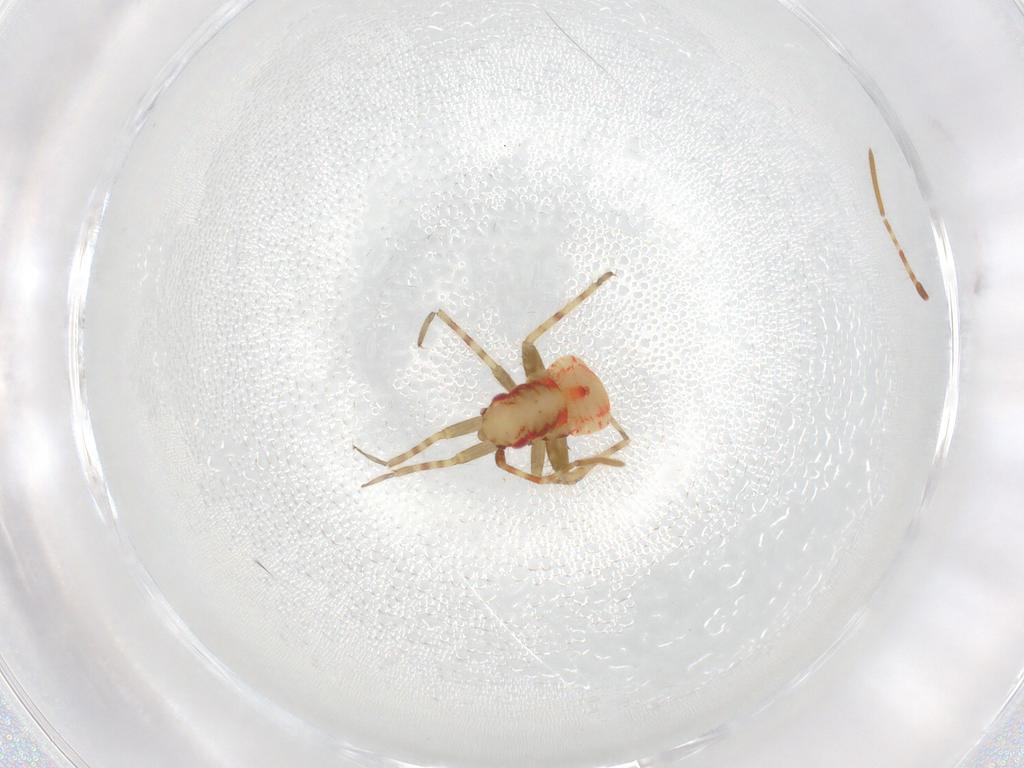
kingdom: Animalia
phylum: Arthropoda
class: Insecta
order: Hemiptera
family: Miridae
